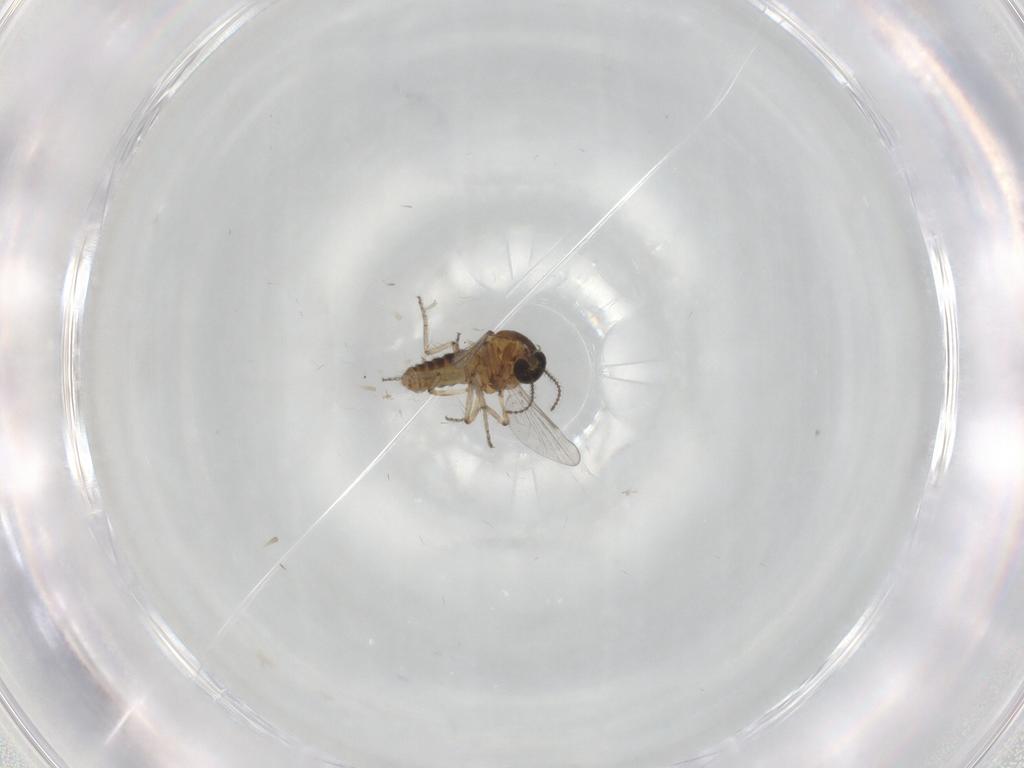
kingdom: Animalia
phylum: Arthropoda
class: Insecta
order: Diptera
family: Ceratopogonidae
